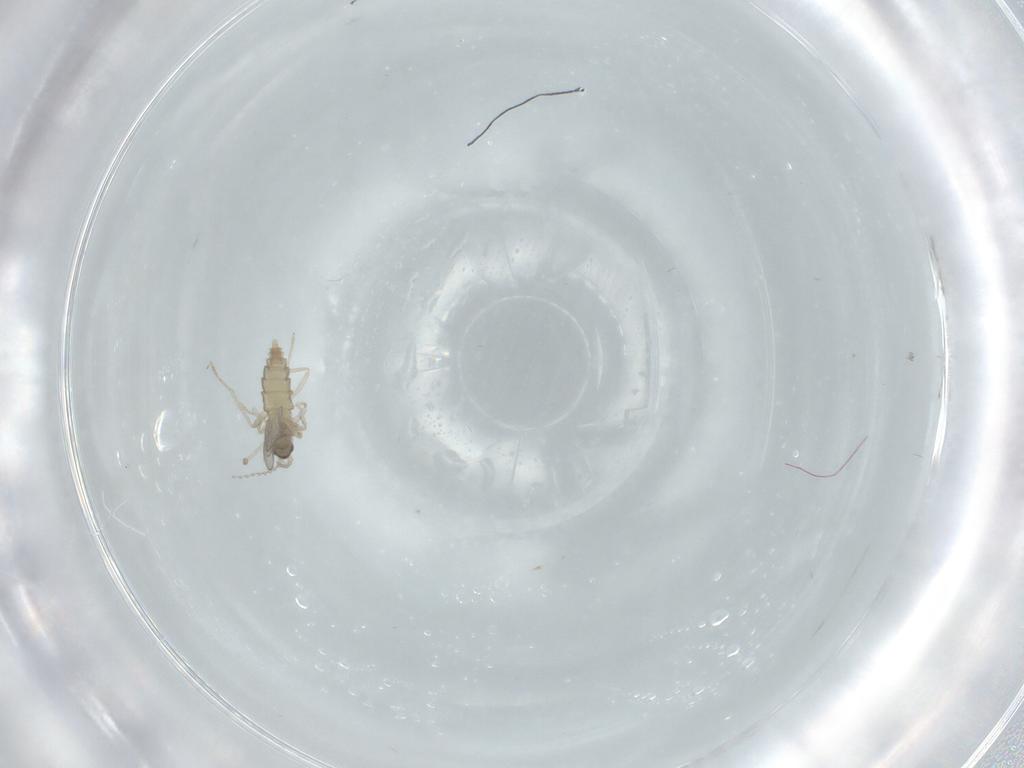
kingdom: Animalia
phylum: Arthropoda
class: Insecta
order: Diptera
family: Cecidomyiidae
